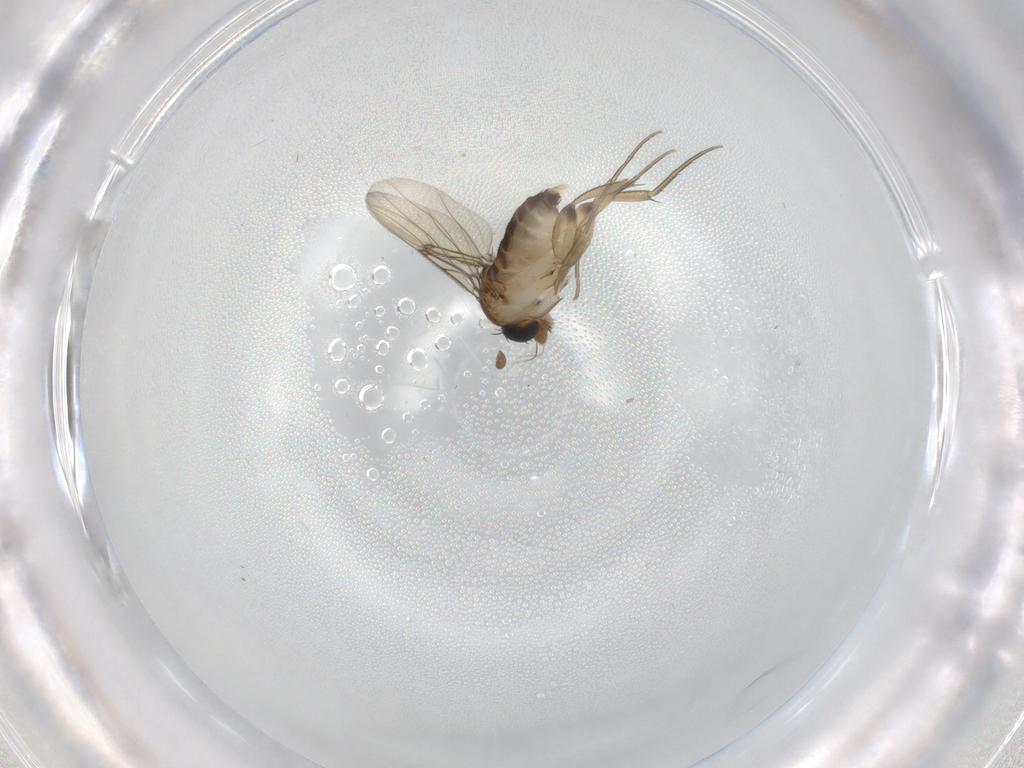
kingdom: Animalia
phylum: Arthropoda
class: Insecta
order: Diptera
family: Phoridae
